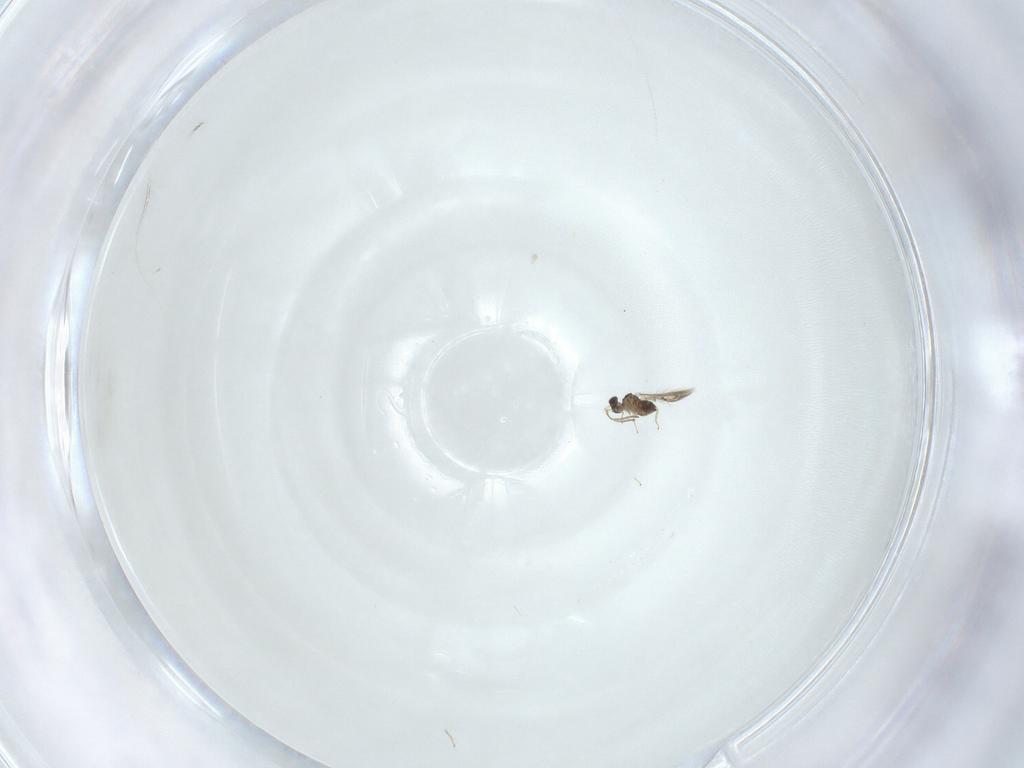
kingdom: Animalia
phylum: Arthropoda
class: Insecta
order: Hymenoptera
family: Mymaridae
